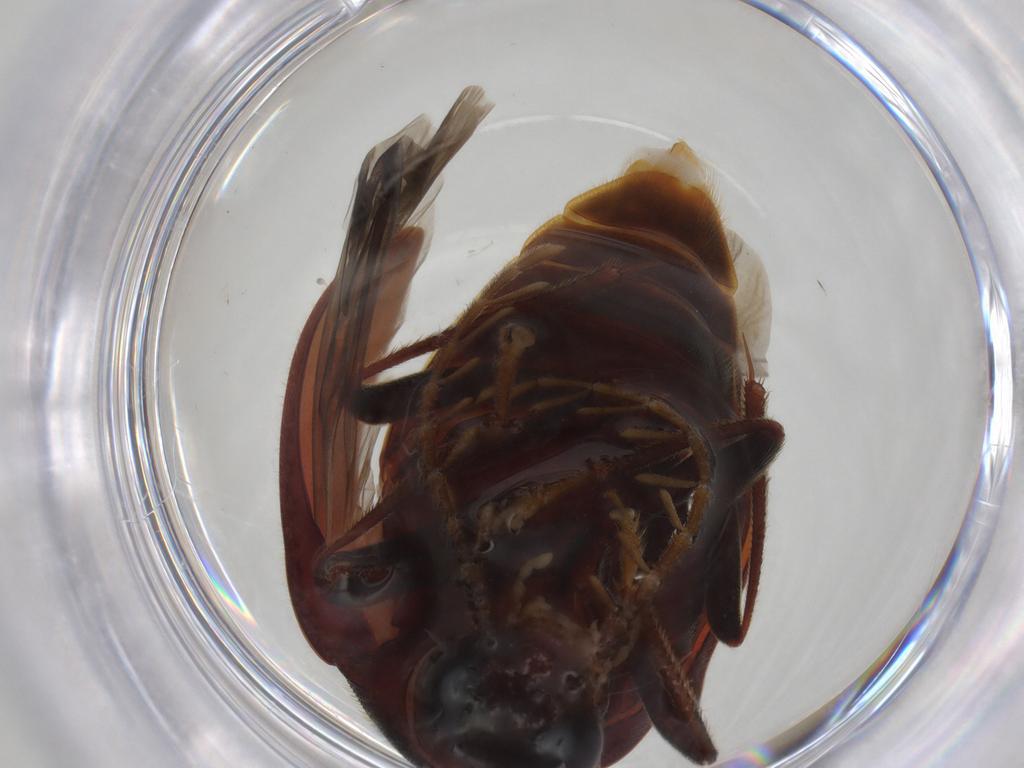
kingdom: Animalia
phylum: Arthropoda
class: Insecta
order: Coleoptera
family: Ptilodactylidae
